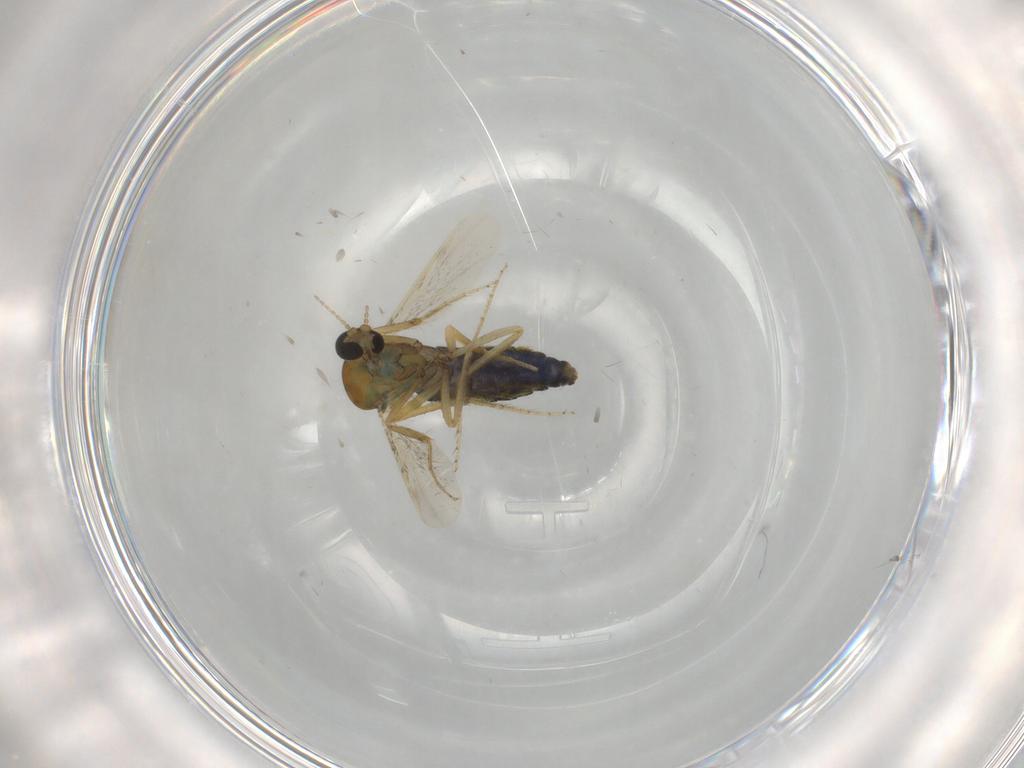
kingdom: Animalia
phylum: Arthropoda
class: Insecta
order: Diptera
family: Ceratopogonidae
